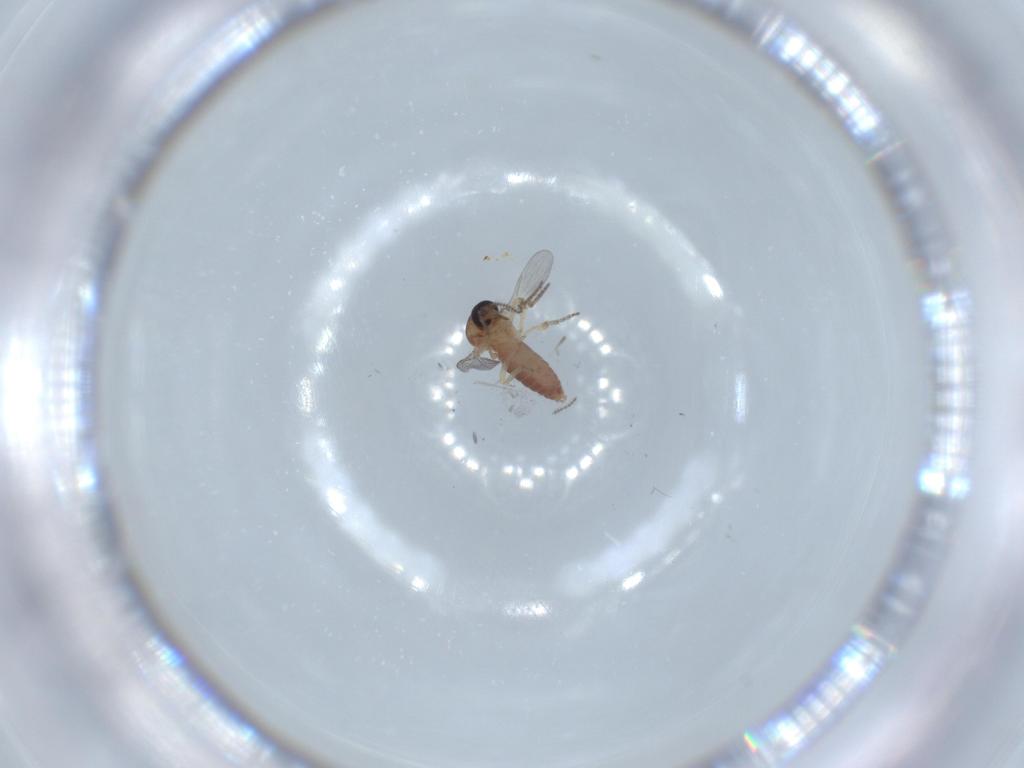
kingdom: Animalia
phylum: Arthropoda
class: Insecta
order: Diptera
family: Ceratopogonidae
